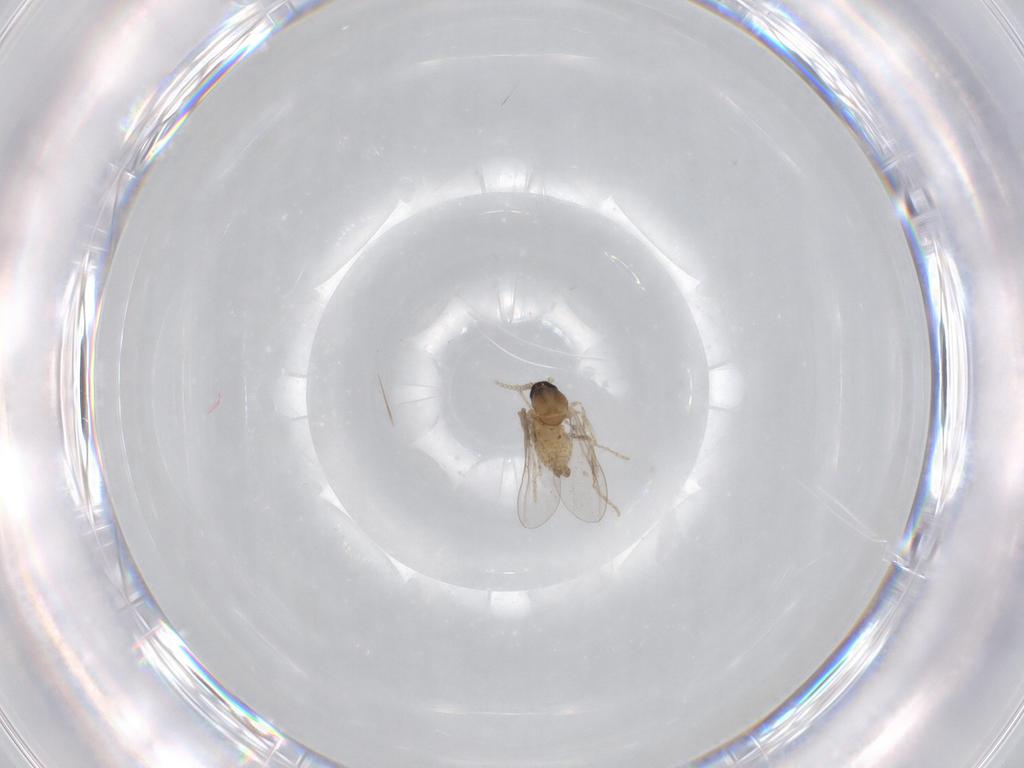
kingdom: Animalia
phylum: Arthropoda
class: Insecta
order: Diptera
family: Cecidomyiidae
